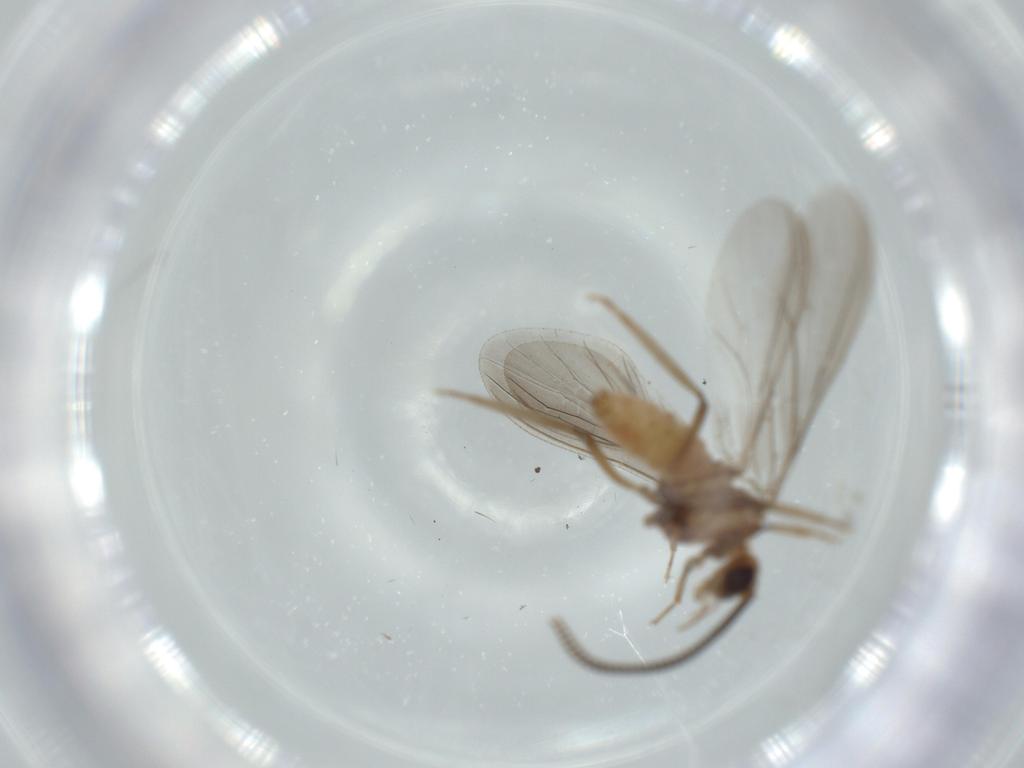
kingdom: Animalia
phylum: Arthropoda
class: Insecta
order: Neuroptera
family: Coniopterygidae
